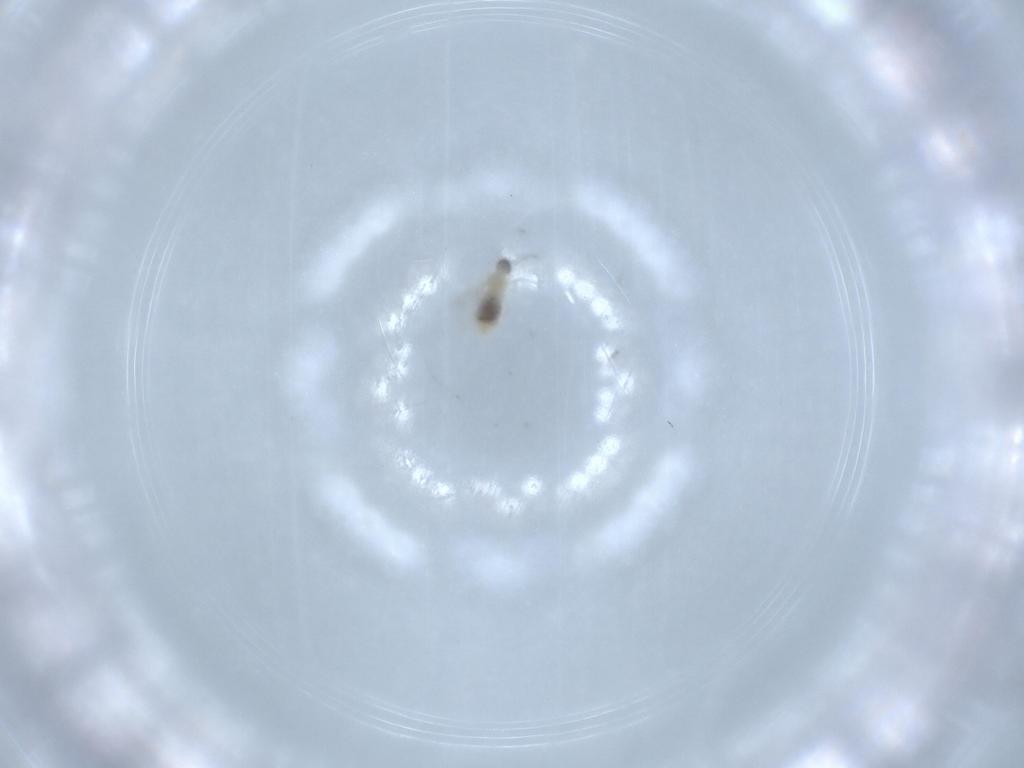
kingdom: Animalia
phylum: Arthropoda
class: Insecta
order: Diptera
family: Cecidomyiidae
